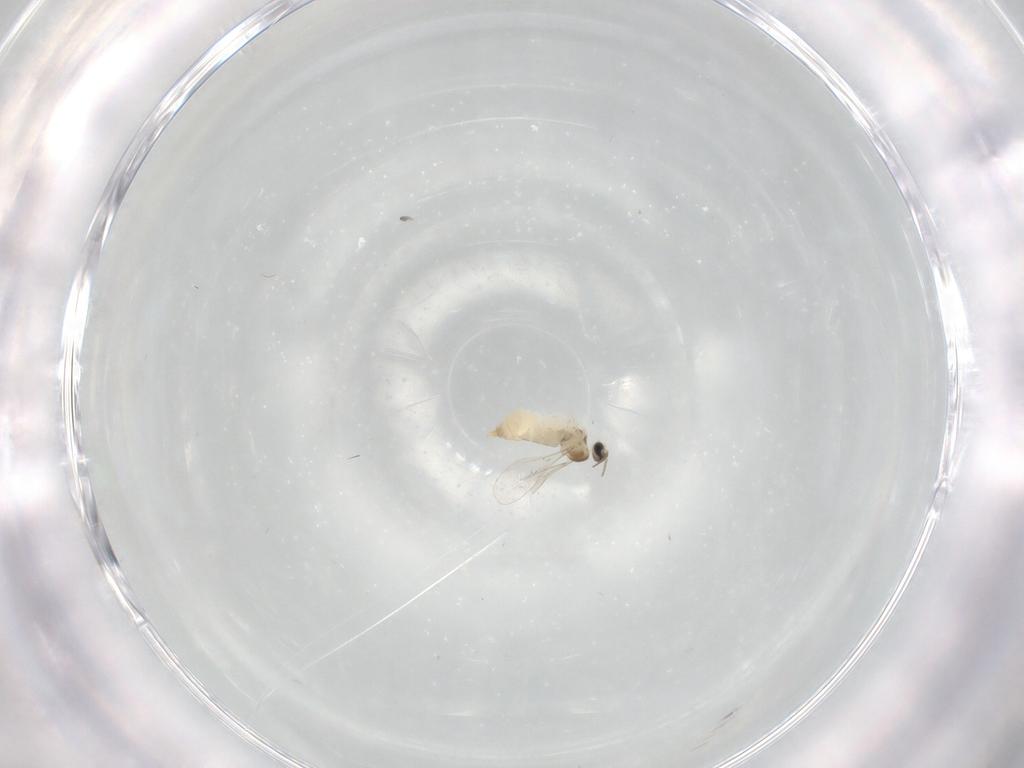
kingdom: Animalia
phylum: Arthropoda
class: Insecta
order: Diptera
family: Cecidomyiidae
